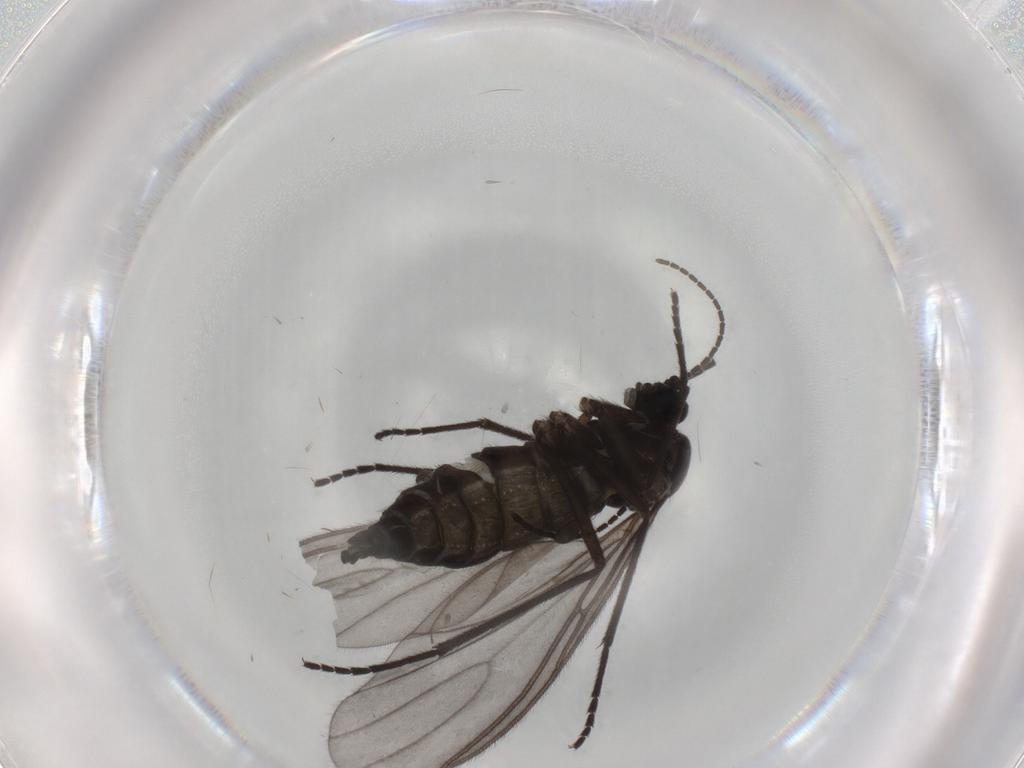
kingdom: Animalia
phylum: Arthropoda
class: Insecta
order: Diptera
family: Sciaridae
